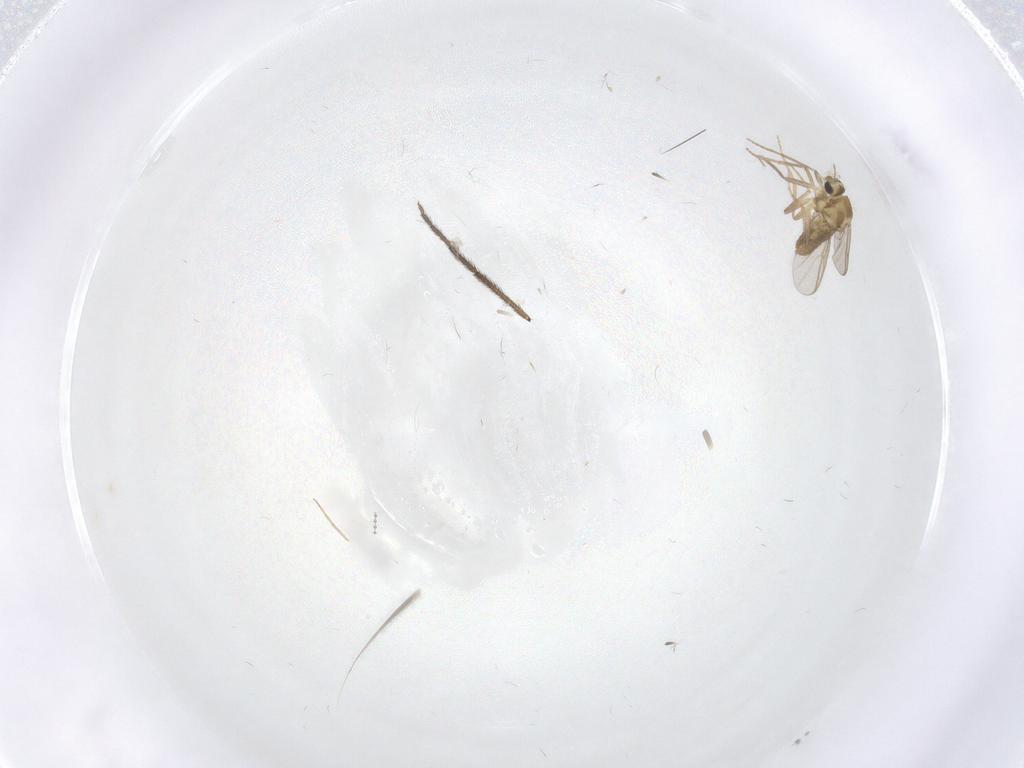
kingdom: Animalia
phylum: Arthropoda
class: Insecta
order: Diptera
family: Chironomidae
